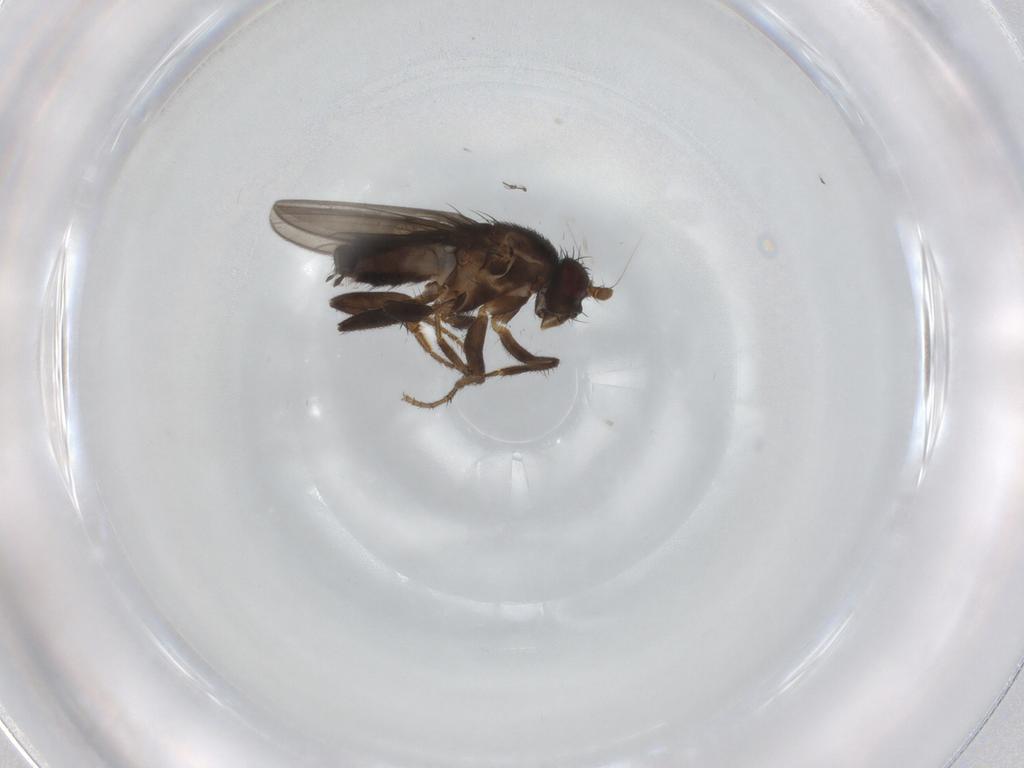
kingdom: Animalia
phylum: Arthropoda
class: Insecta
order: Diptera
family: Sphaeroceridae
